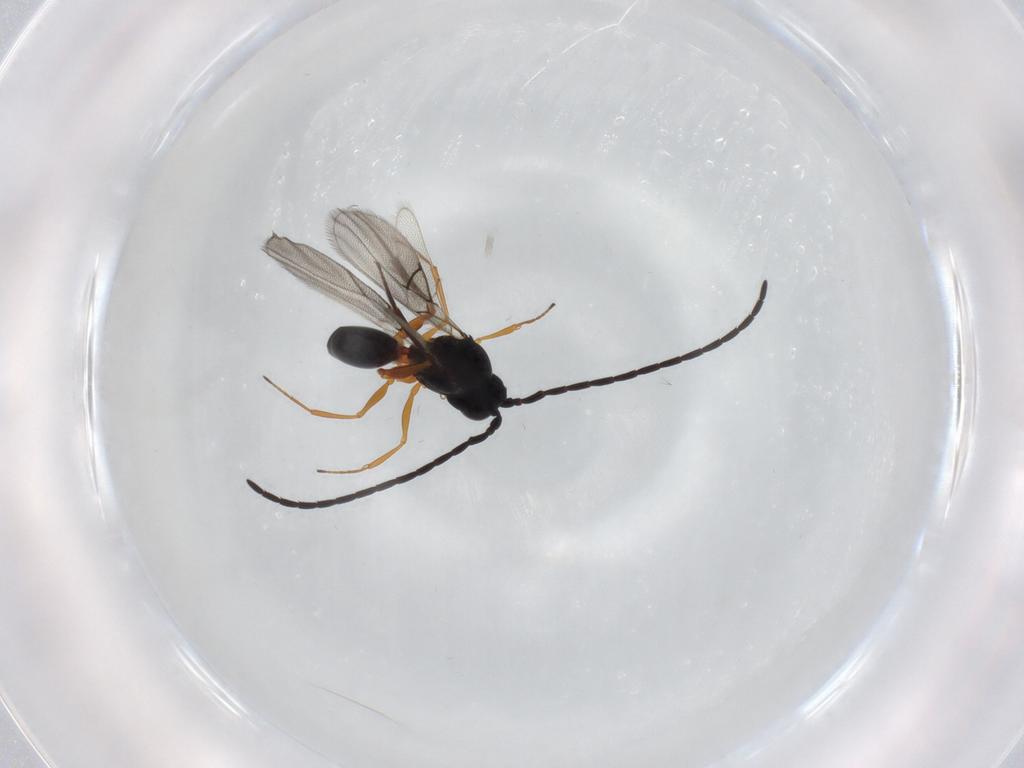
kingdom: Animalia
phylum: Arthropoda
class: Insecta
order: Hymenoptera
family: Figitidae
